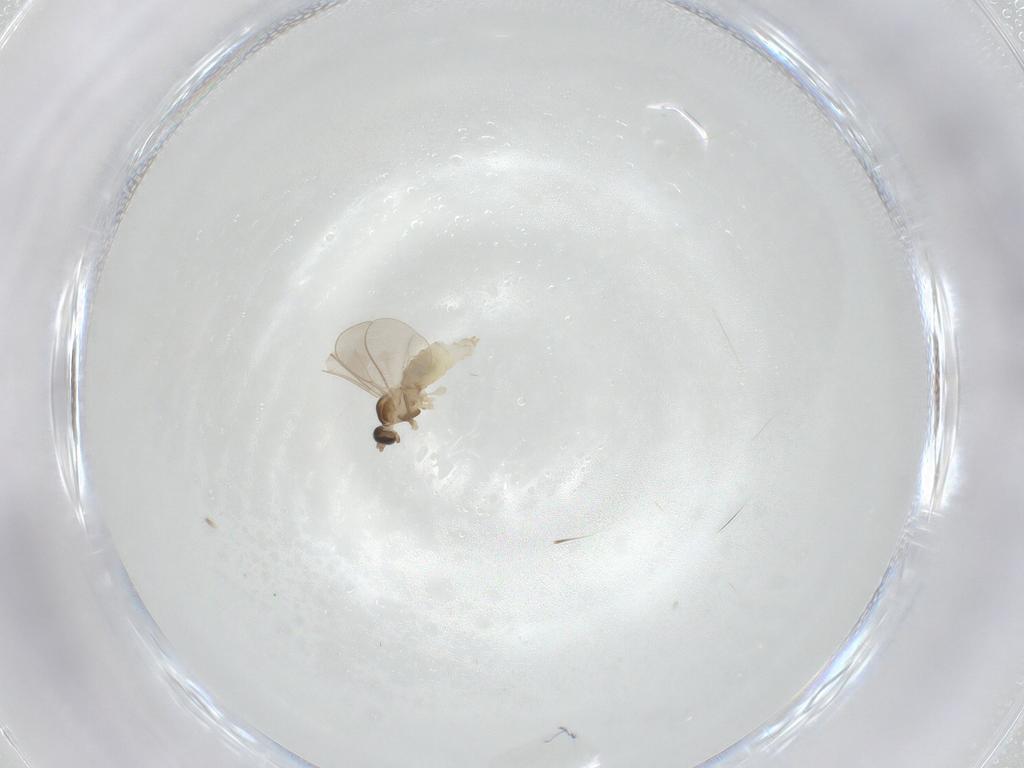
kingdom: Animalia
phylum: Arthropoda
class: Insecta
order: Diptera
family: Cecidomyiidae
